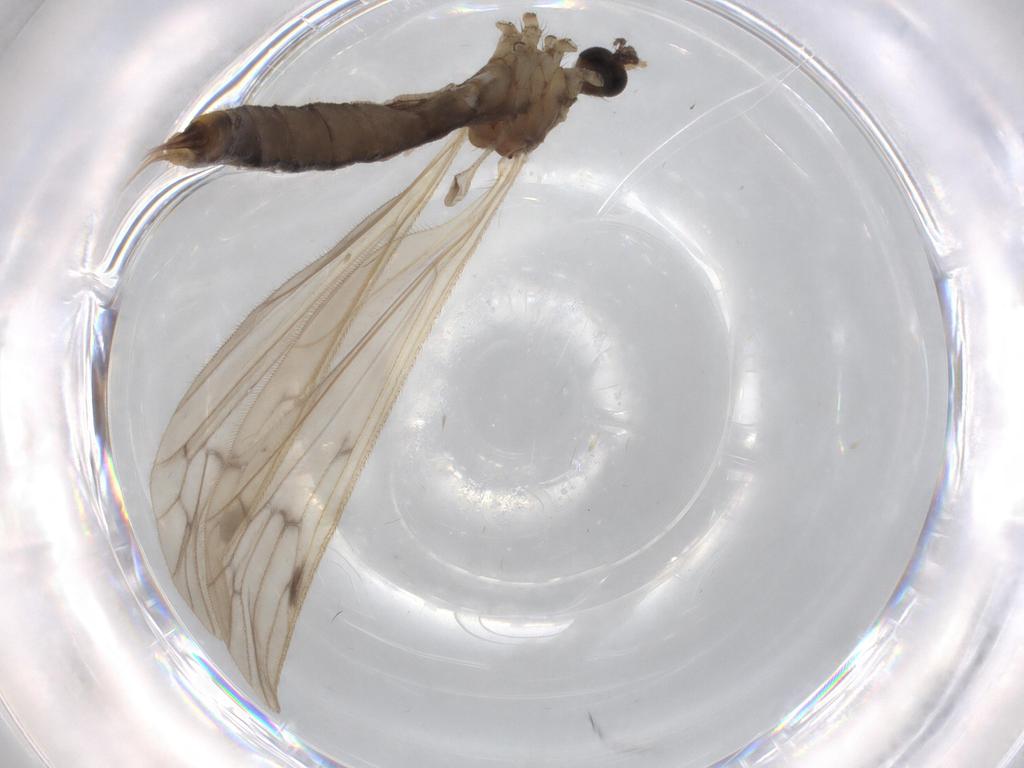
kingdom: Animalia
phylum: Arthropoda
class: Insecta
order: Diptera
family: Limoniidae
